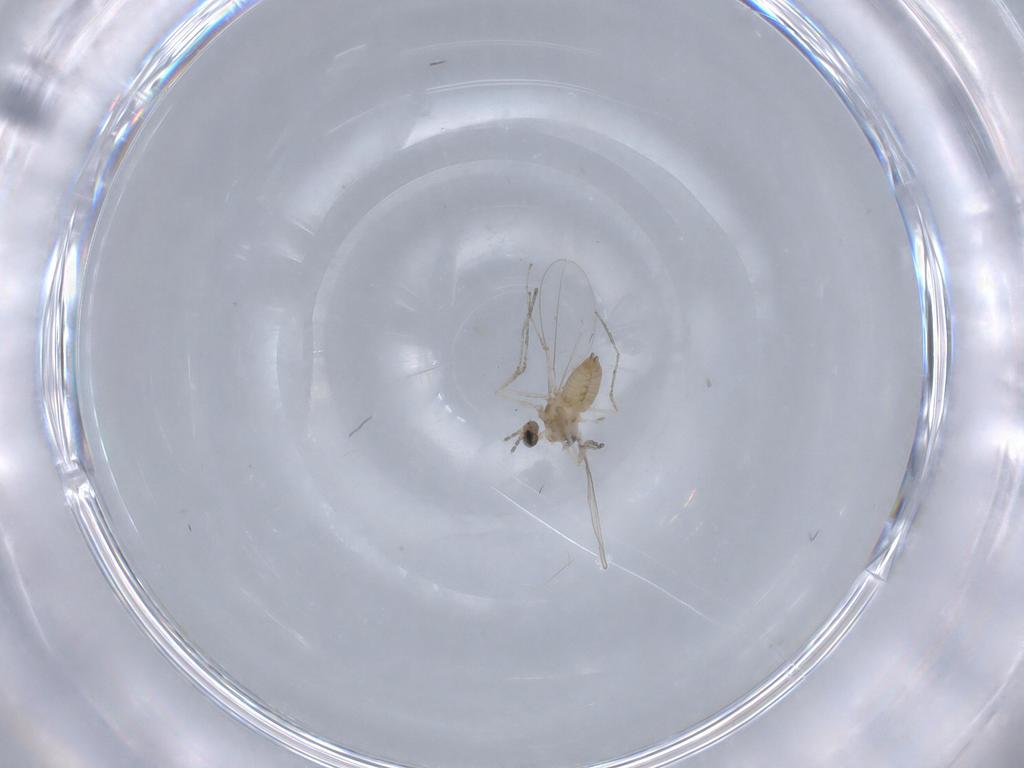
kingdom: Animalia
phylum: Arthropoda
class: Insecta
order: Diptera
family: Cecidomyiidae
